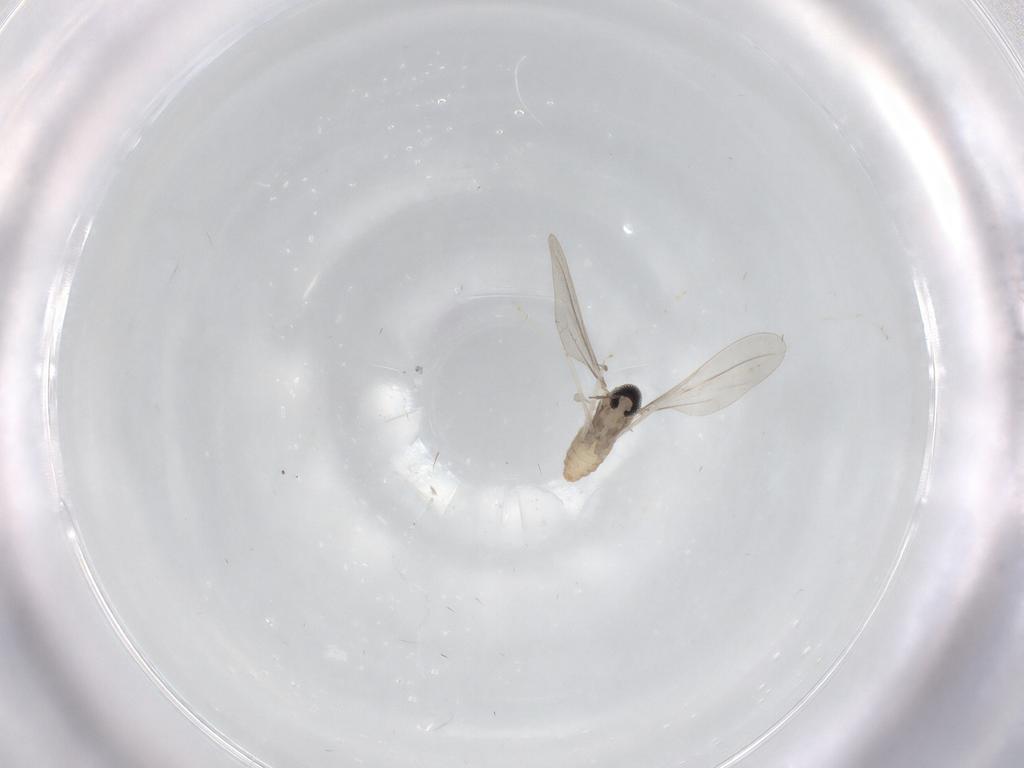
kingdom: Animalia
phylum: Arthropoda
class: Insecta
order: Diptera
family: Cecidomyiidae
